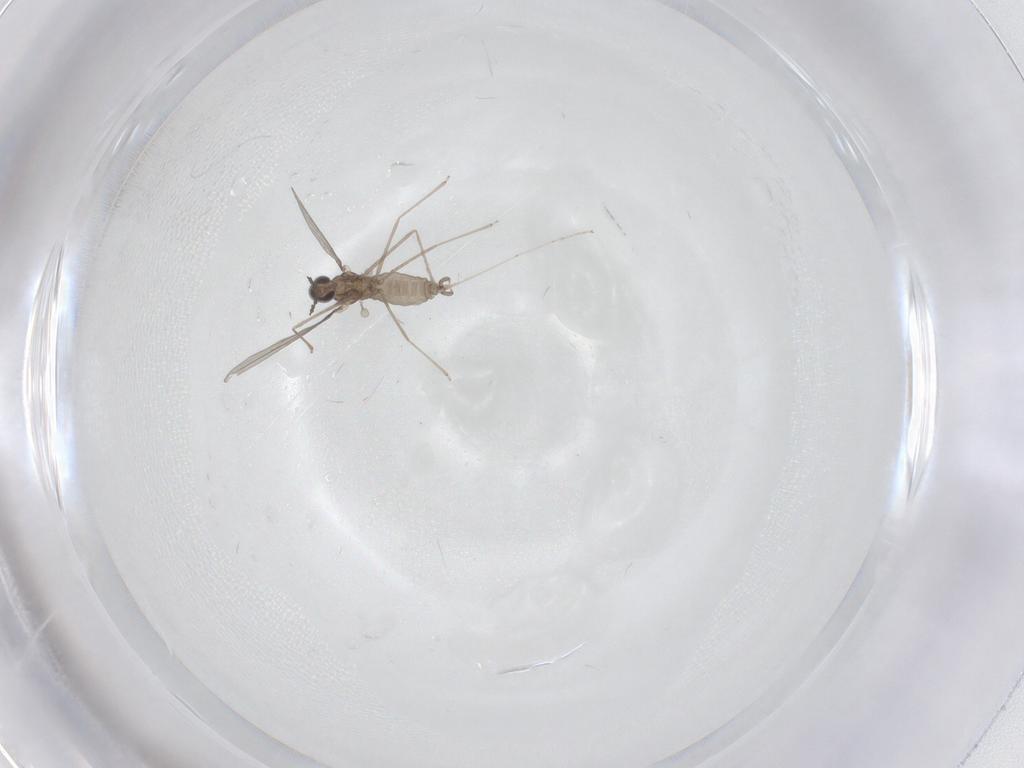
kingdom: Animalia
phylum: Arthropoda
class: Insecta
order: Diptera
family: Cecidomyiidae
